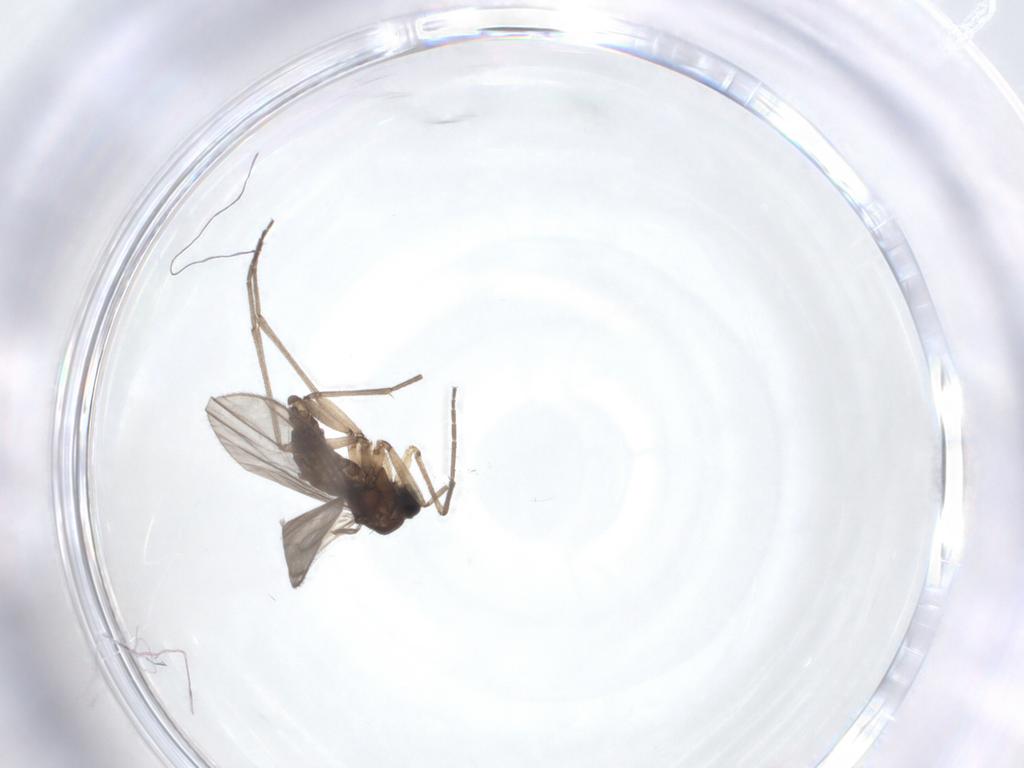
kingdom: Animalia
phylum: Arthropoda
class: Insecta
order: Diptera
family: Sciaridae
